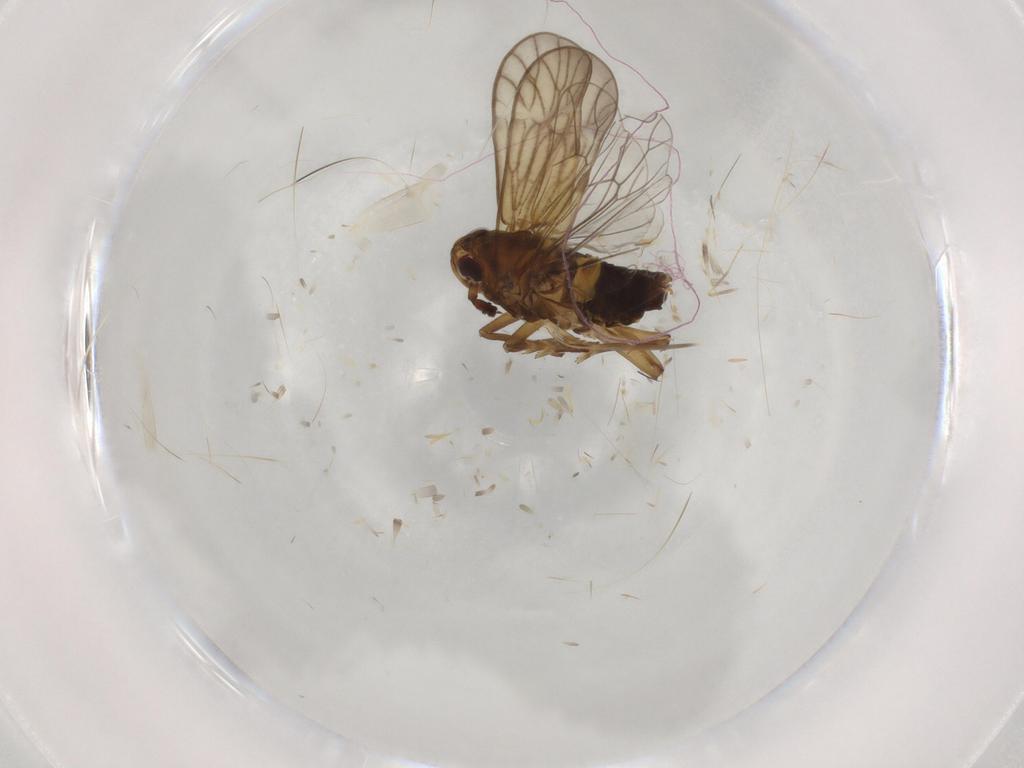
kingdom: Animalia
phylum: Arthropoda
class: Insecta
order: Hemiptera
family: Delphacidae
